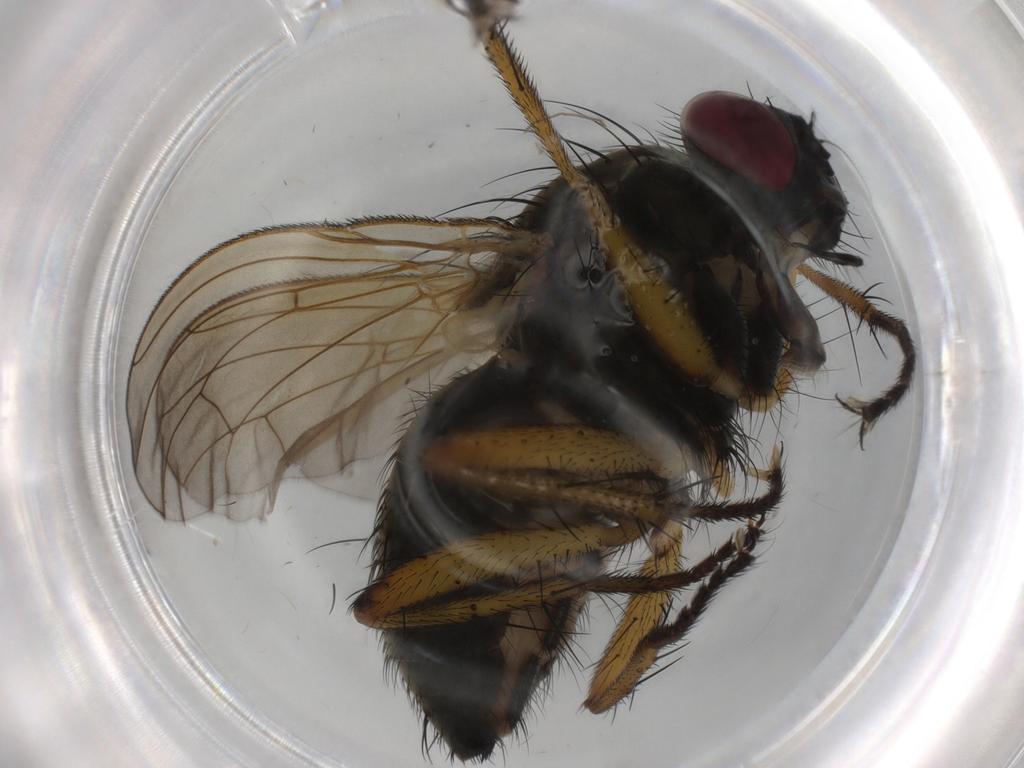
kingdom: Animalia
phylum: Arthropoda
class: Insecta
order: Diptera
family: Muscidae
